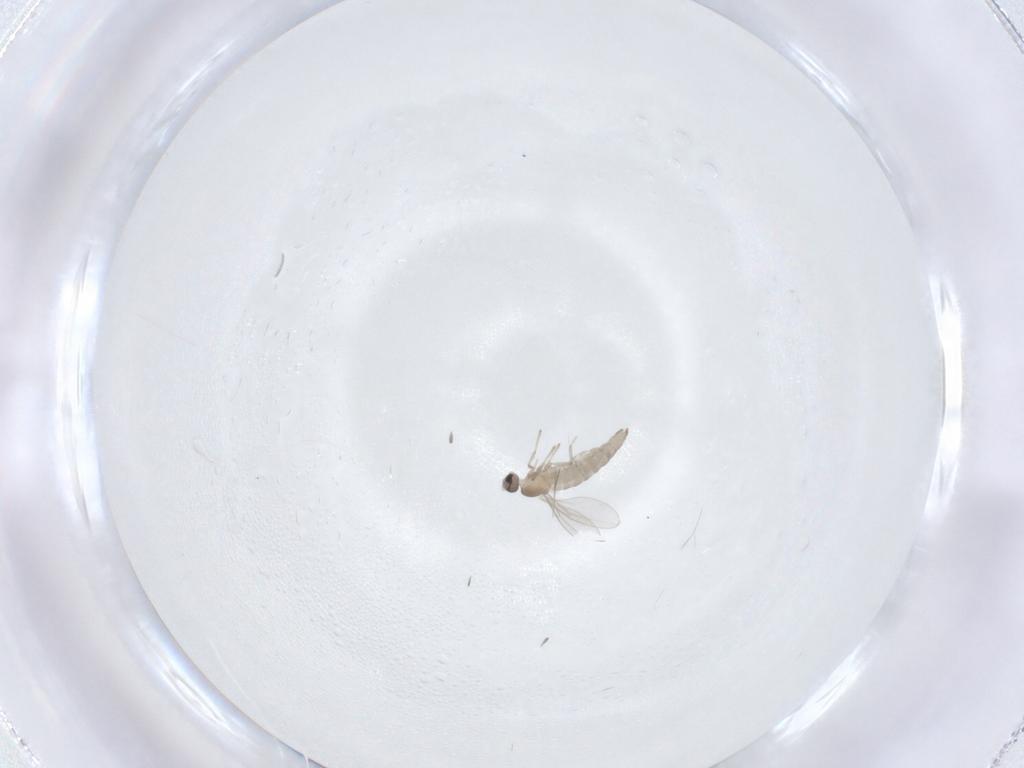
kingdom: Animalia
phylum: Arthropoda
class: Insecta
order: Diptera
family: Cecidomyiidae
